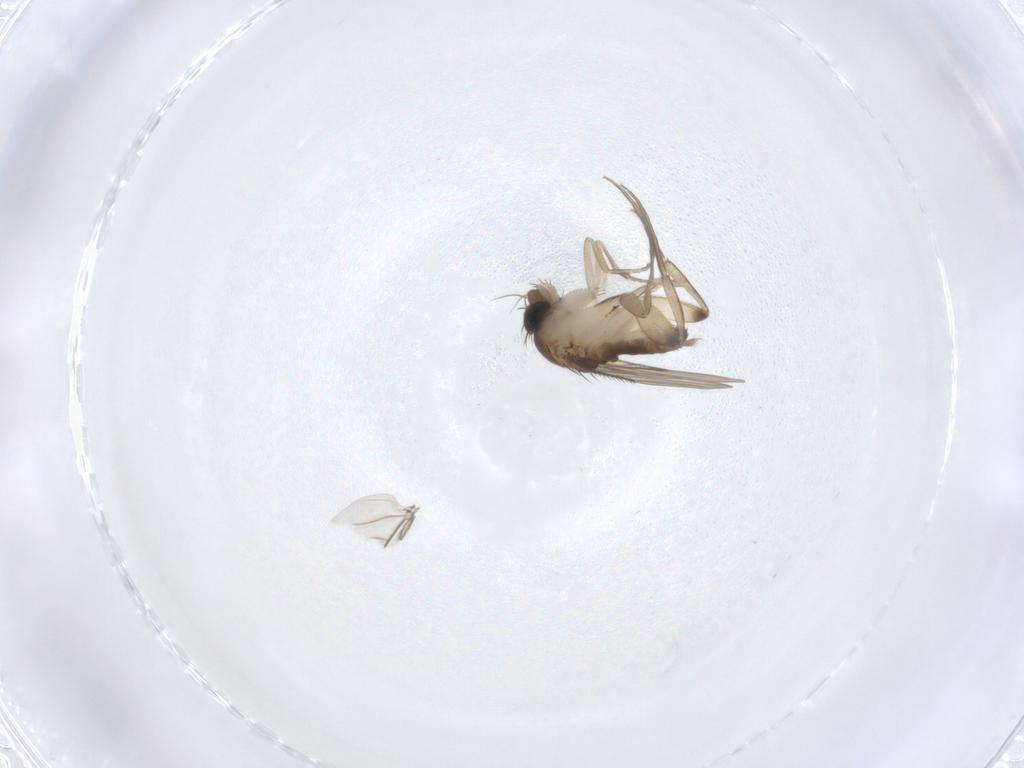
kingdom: Animalia
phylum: Arthropoda
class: Insecta
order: Diptera
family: Phoridae
